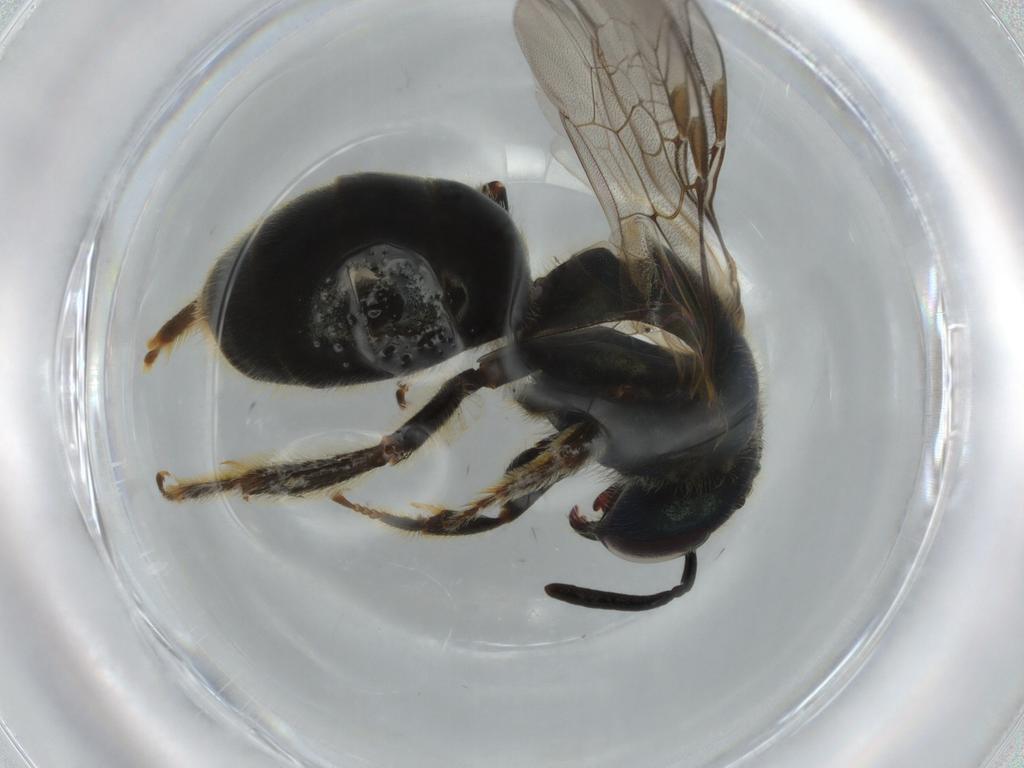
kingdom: Animalia
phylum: Arthropoda
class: Insecta
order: Hymenoptera
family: Halictidae
